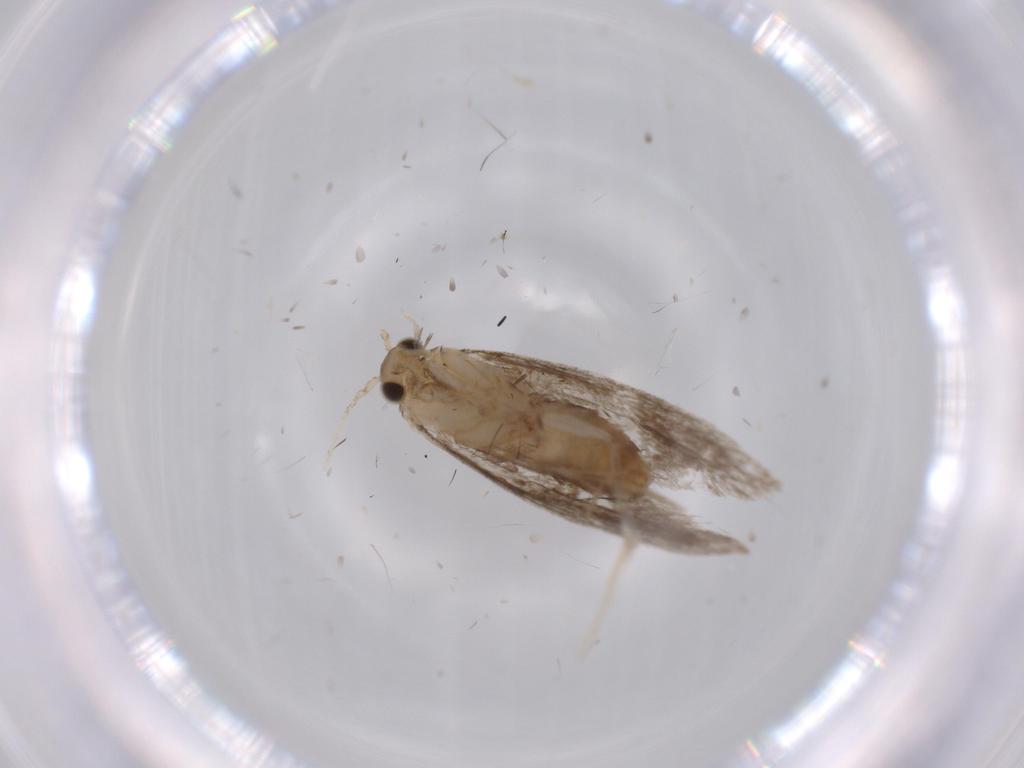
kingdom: Animalia
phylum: Arthropoda
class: Insecta
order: Lepidoptera
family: Tineidae
